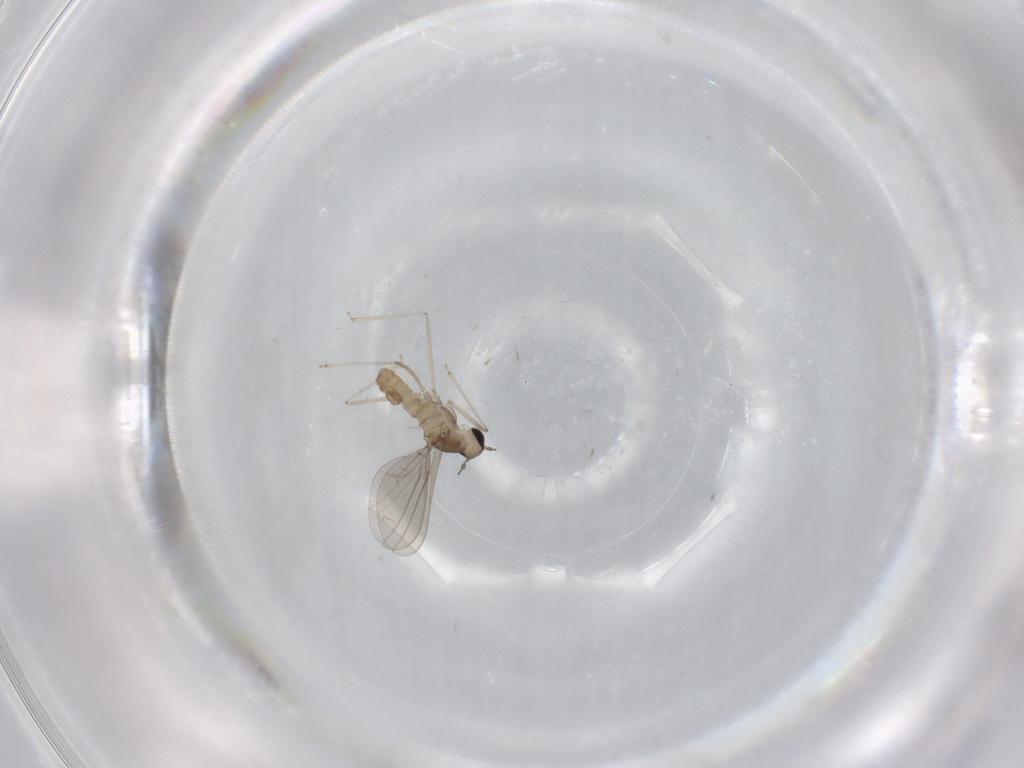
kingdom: Animalia
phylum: Arthropoda
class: Insecta
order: Diptera
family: Cecidomyiidae
